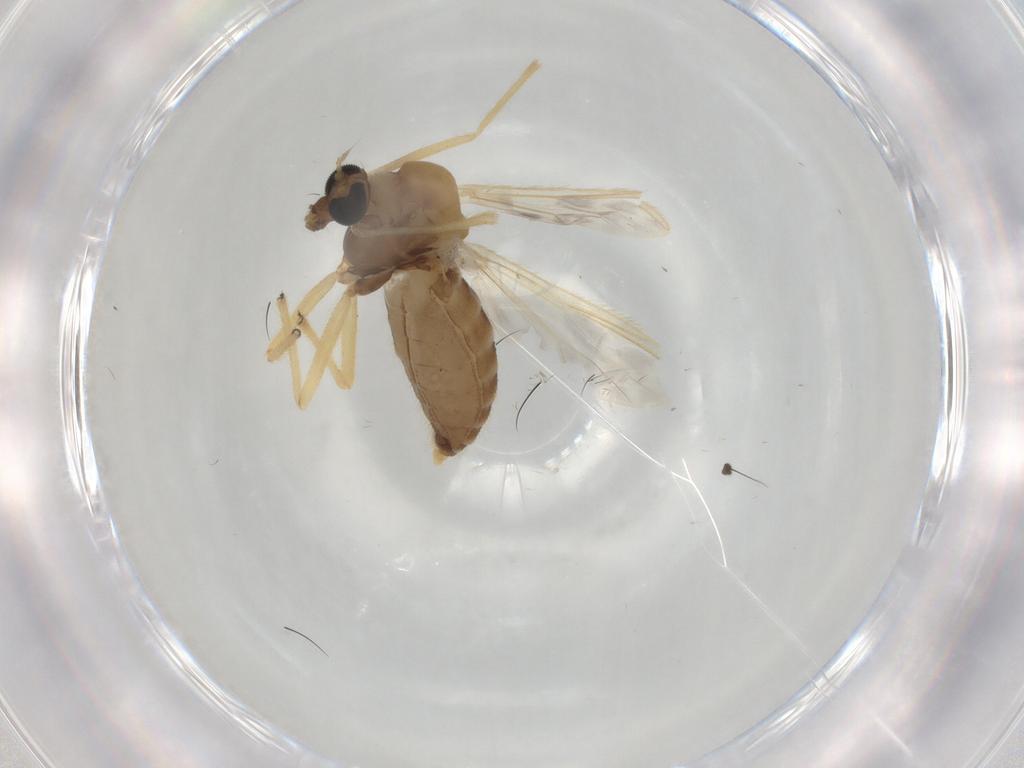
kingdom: Animalia
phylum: Arthropoda
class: Insecta
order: Diptera
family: Chironomidae
